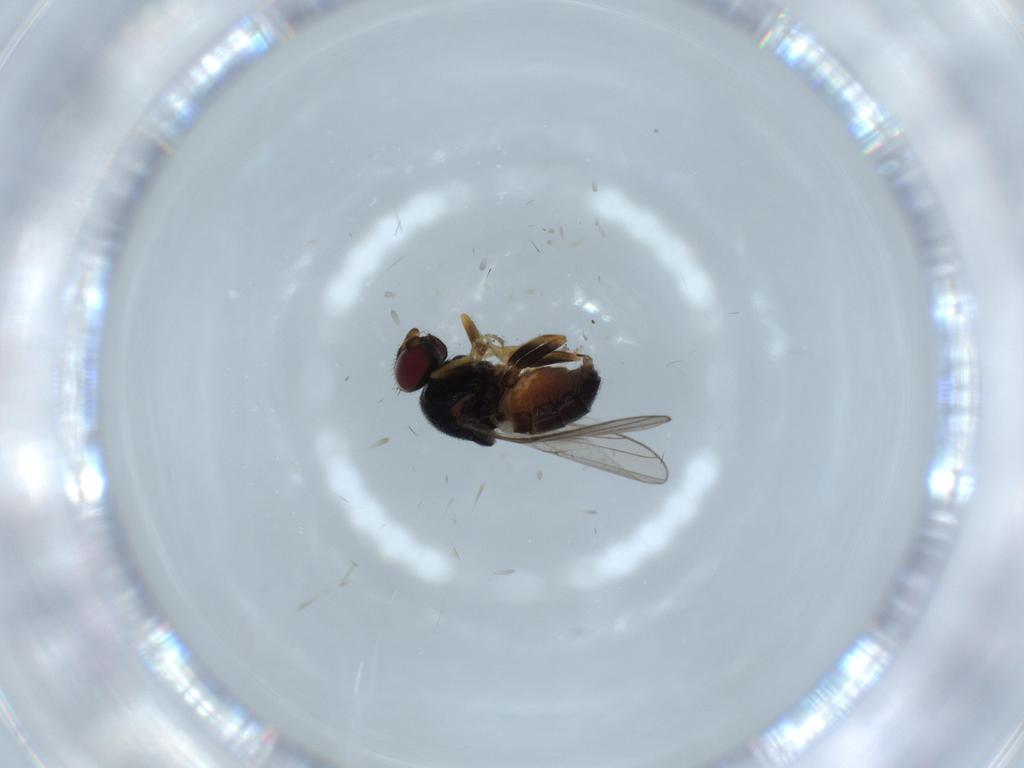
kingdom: Animalia
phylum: Arthropoda
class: Insecta
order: Diptera
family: Chloropidae
